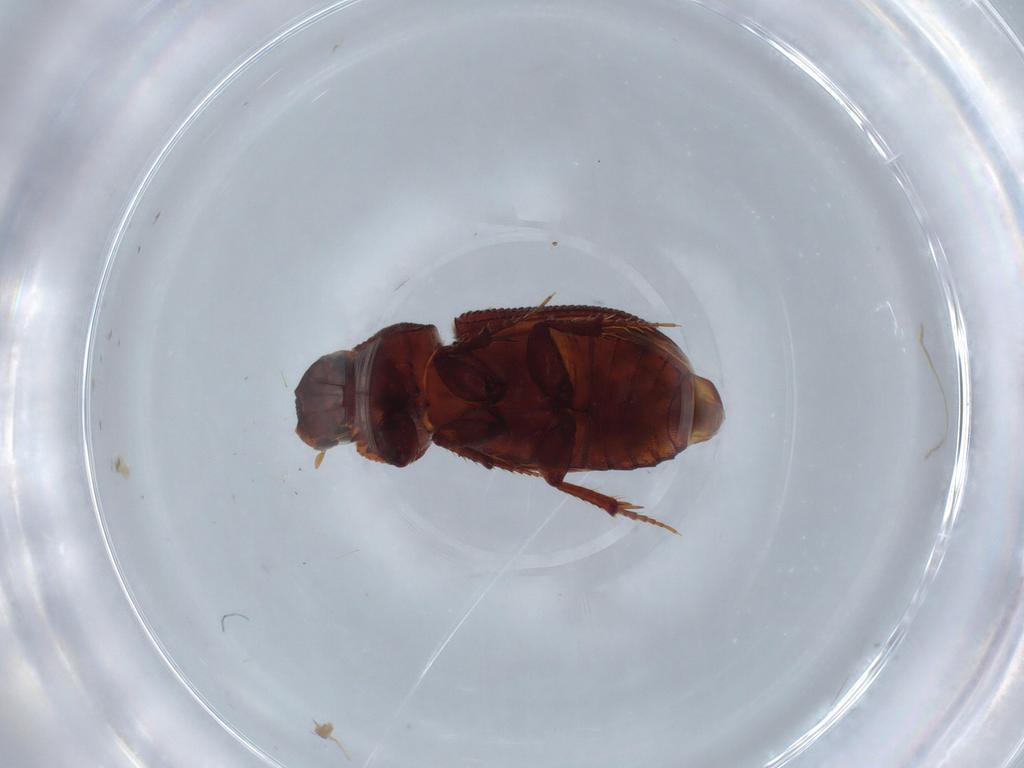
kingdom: Animalia
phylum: Arthropoda
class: Insecta
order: Coleoptera
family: Scarabaeidae
